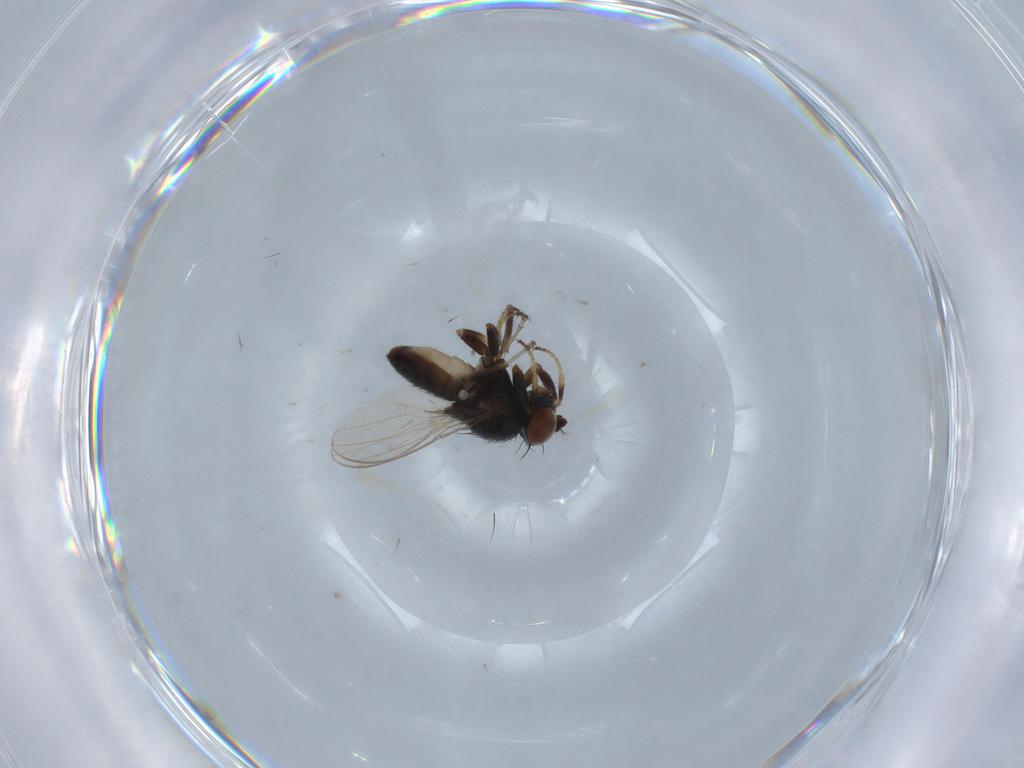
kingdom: Animalia
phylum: Arthropoda
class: Insecta
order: Diptera
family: Ephydridae
